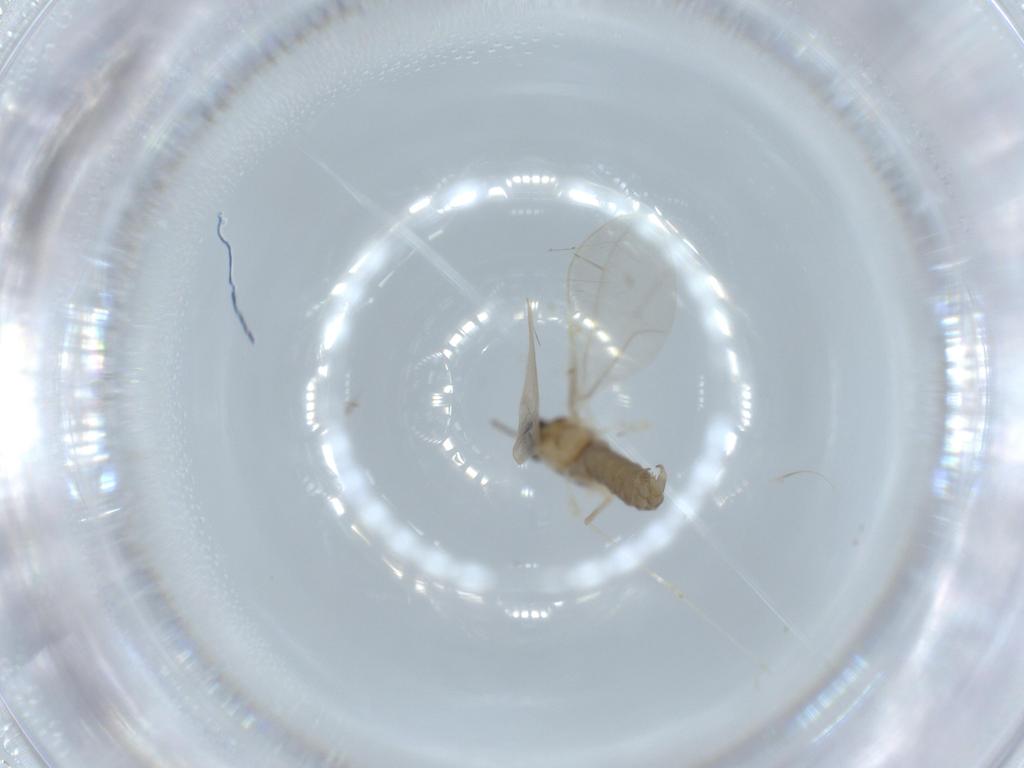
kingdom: Animalia
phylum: Arthropoda
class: Insecta
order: Diptera
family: Cecidomyiidae
